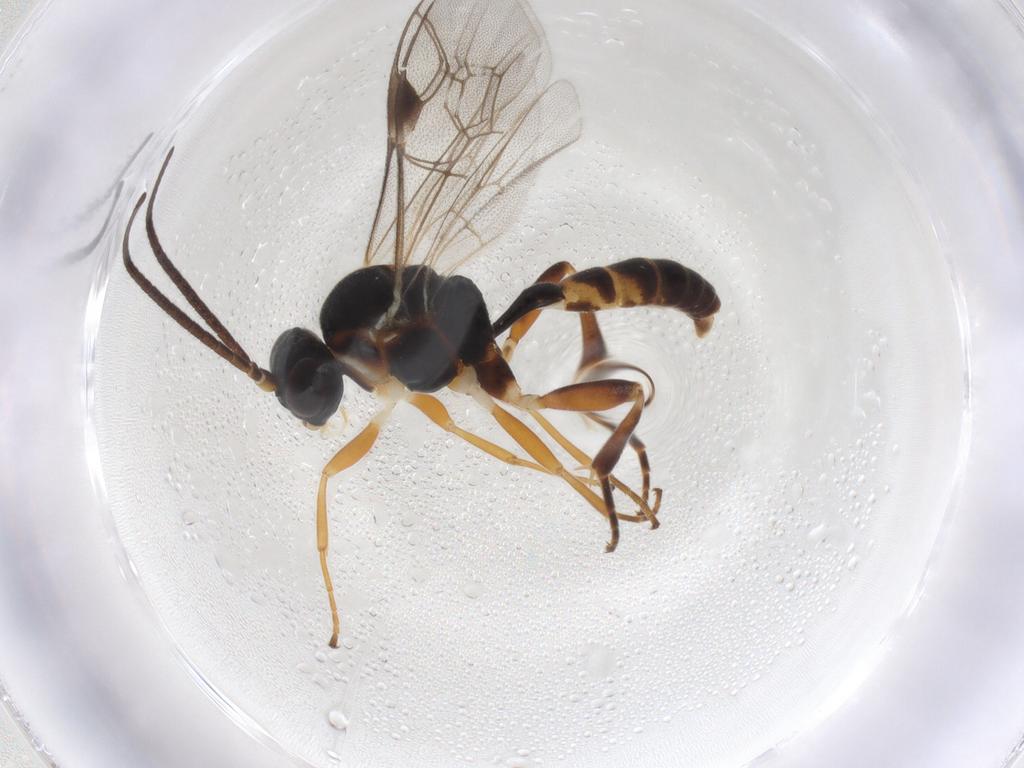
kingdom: Animalia
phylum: Arthropoda
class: Insecta
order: Hymenoptera
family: Ichneumonidae
